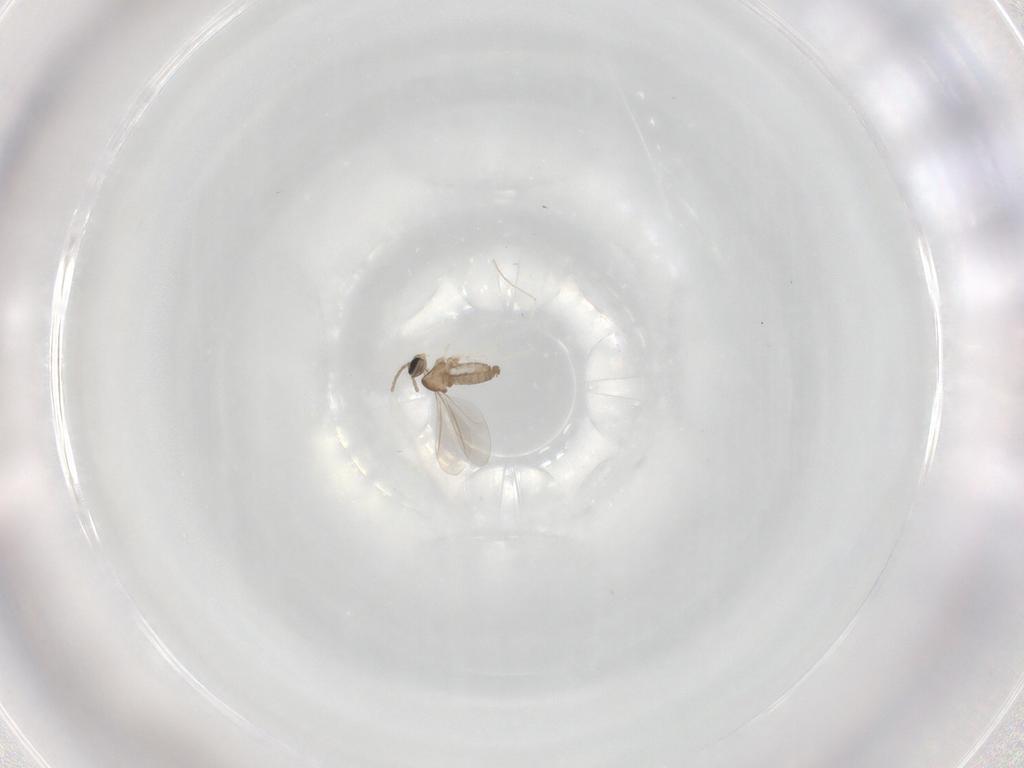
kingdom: Animalia
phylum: Arthropoda
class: Insecta
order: Diptera
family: Cecidomyiidae
